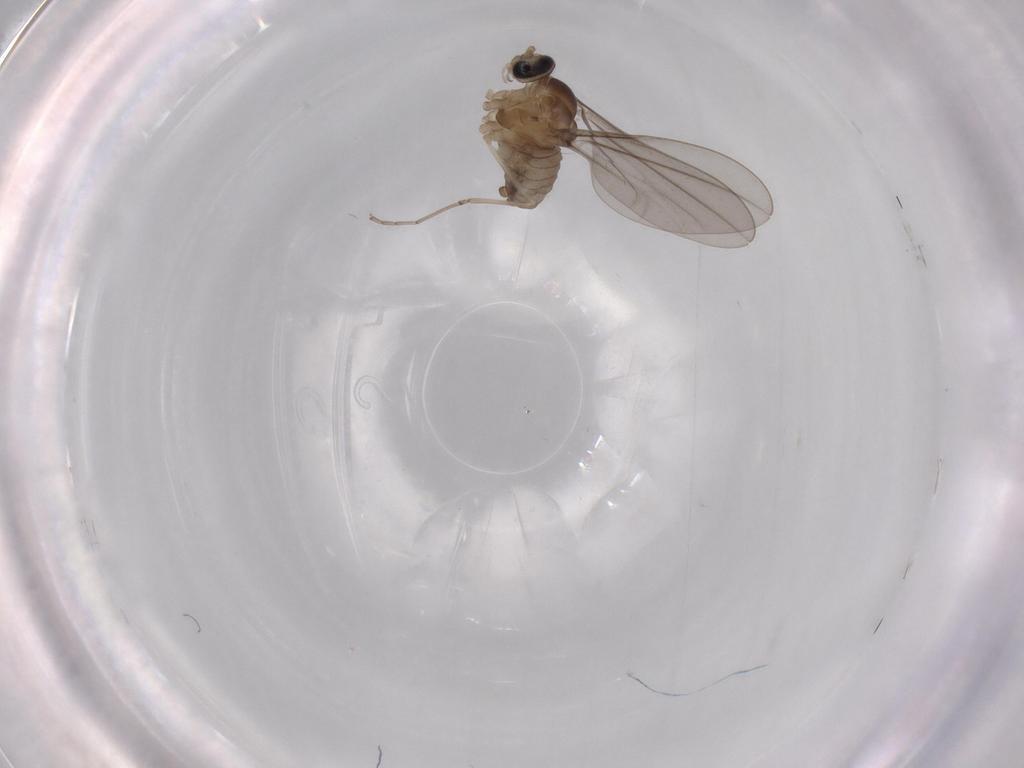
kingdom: Animalia
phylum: Arthropoda
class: Insecta
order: Diptera
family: Cecidomyiidae
